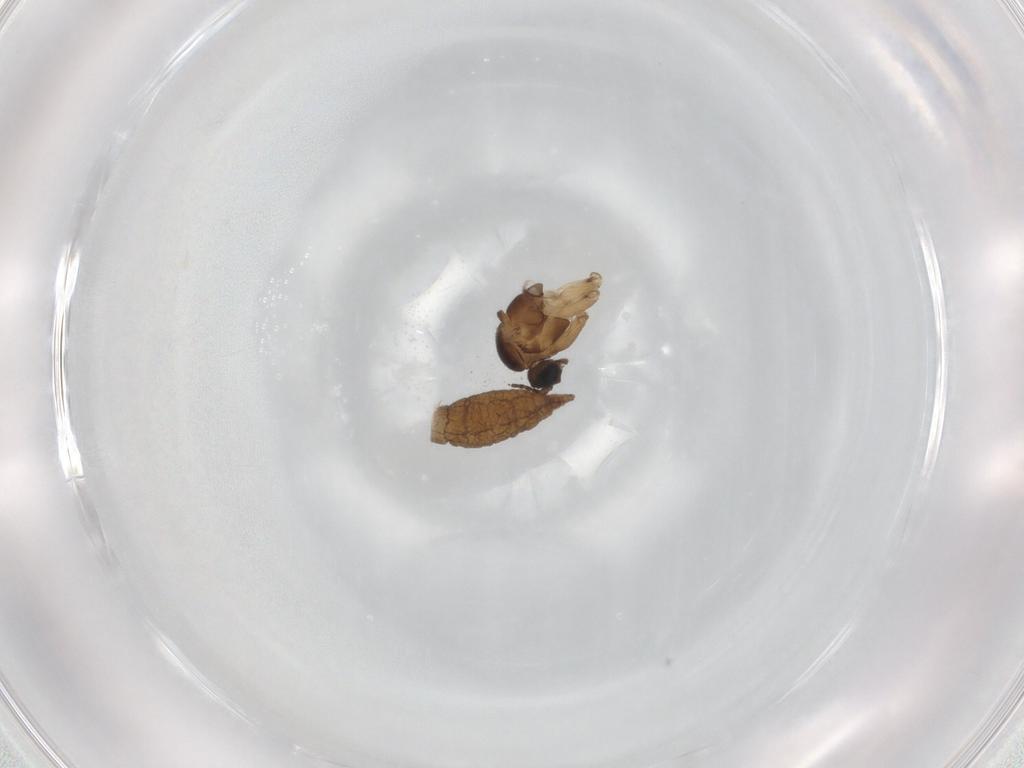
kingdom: Animalia
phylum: Arthropoda
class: Insecta
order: Diptera
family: Sciaridae
